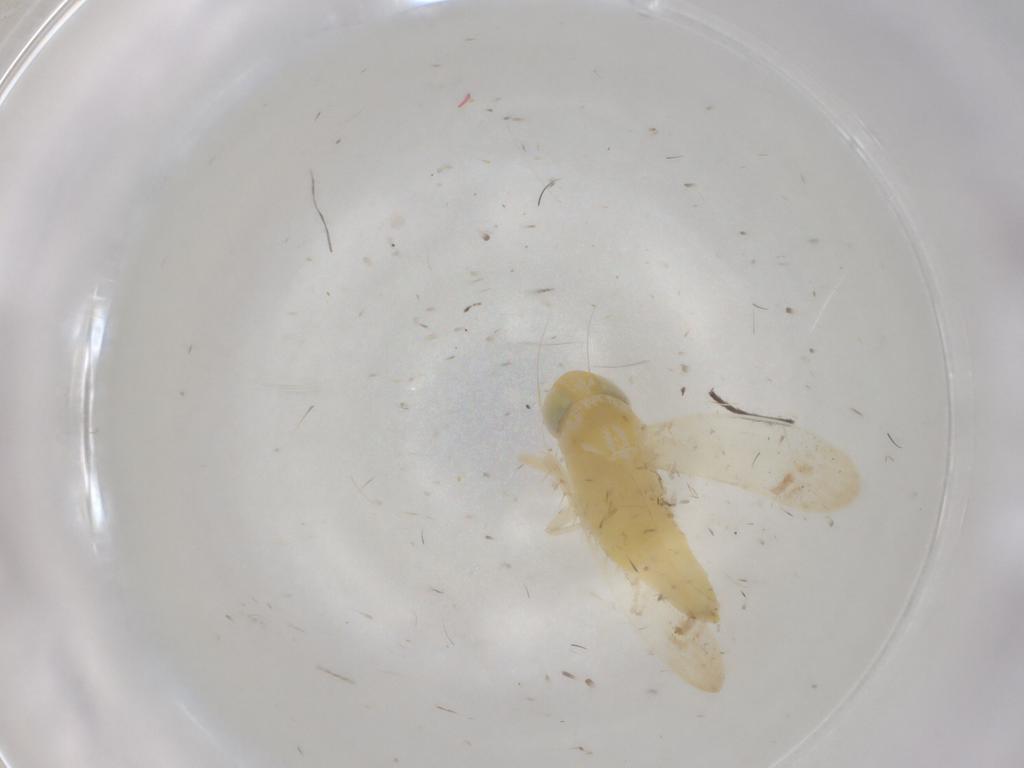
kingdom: Animalia
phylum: Arthropoda
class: Insecta
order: Hemiptera
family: Cicadellidae
